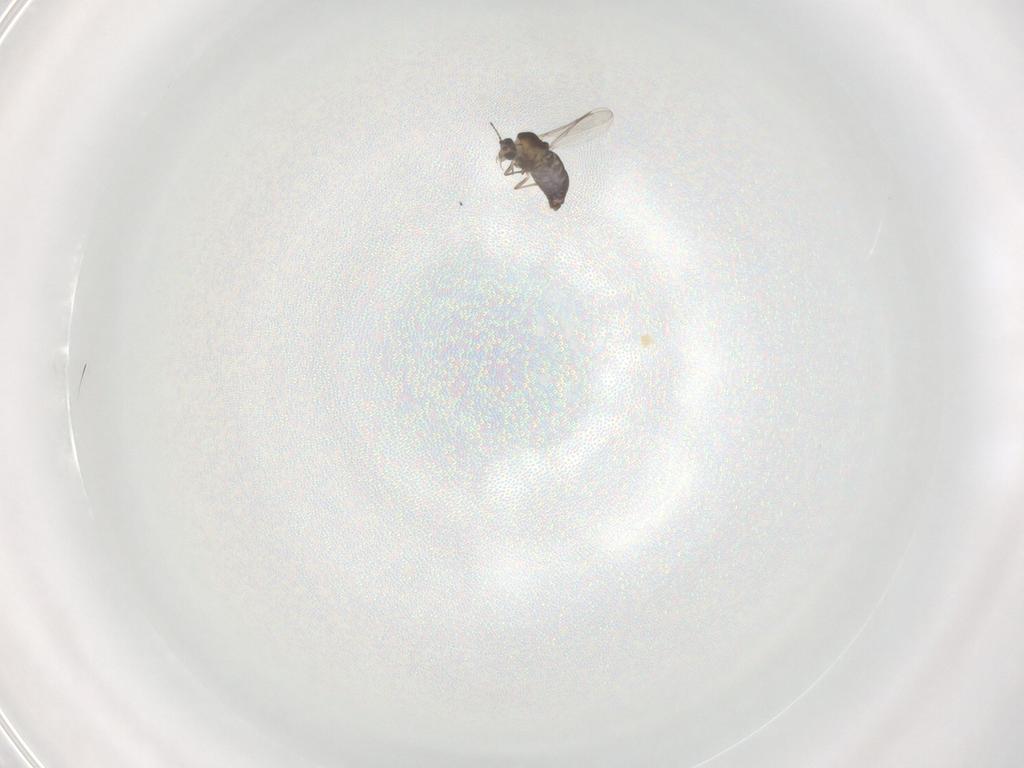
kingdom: Animalia
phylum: Arthropoda
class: Insecta
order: Diptera
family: Chironomidae
